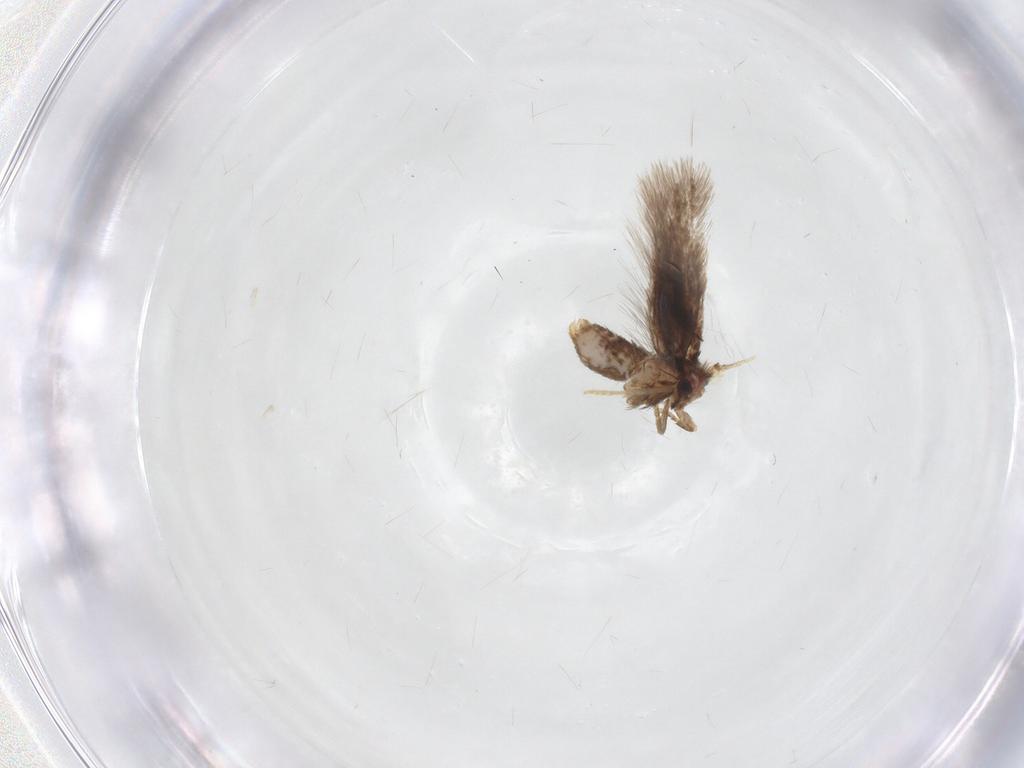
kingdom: Animalia
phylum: Arthropoda
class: Insecta
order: Lepidoptera
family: Nepticulidae
